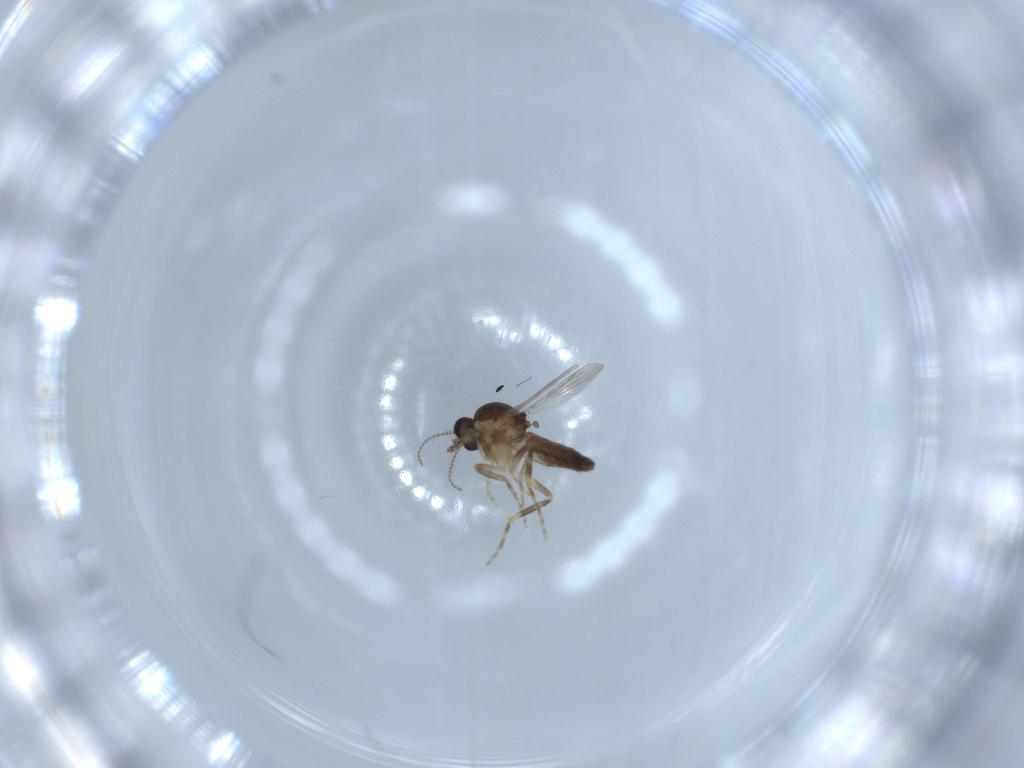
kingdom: Animalia
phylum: Arthropoda
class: Insecta
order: Diptera
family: Ceratopogonidae
